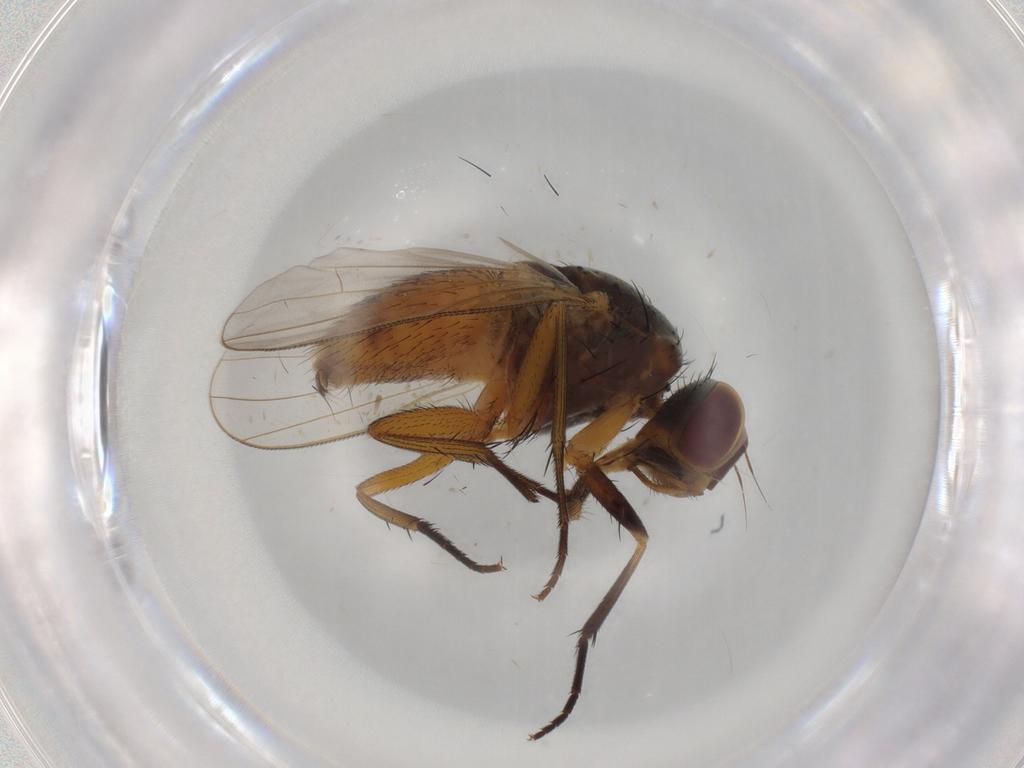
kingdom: Animalia
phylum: Arthropoda
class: Insecta
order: Diptera
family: Muscidae
